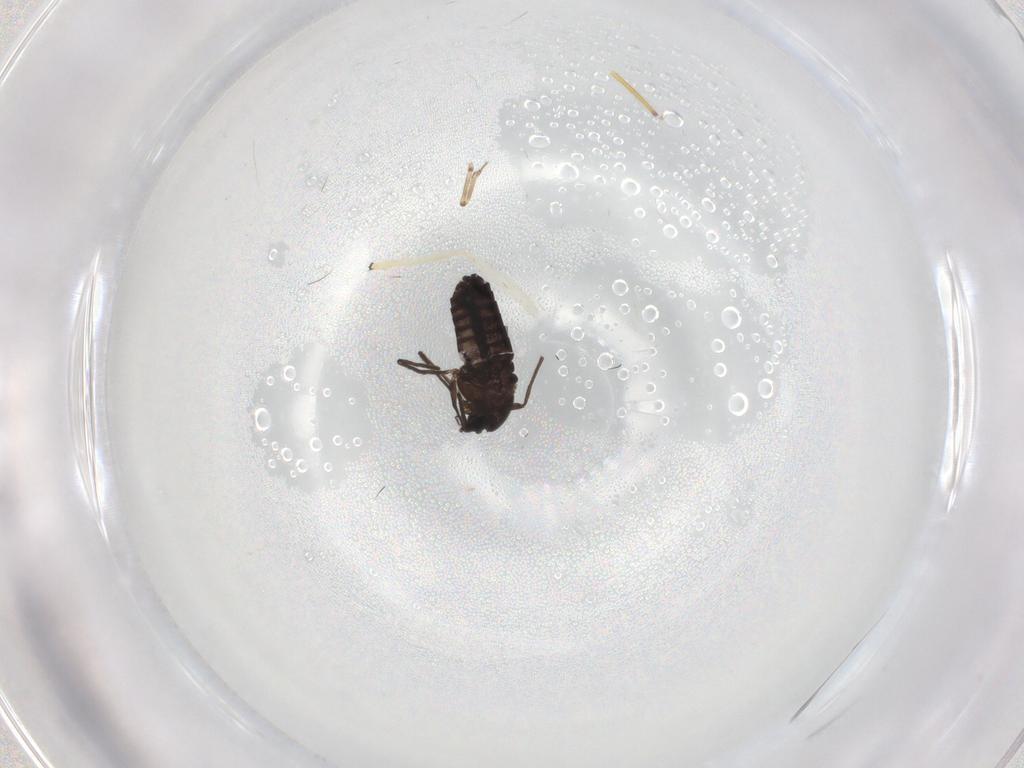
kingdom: Animalia
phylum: Arthropoda
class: Insecta
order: Diptera
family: Chironomidae
